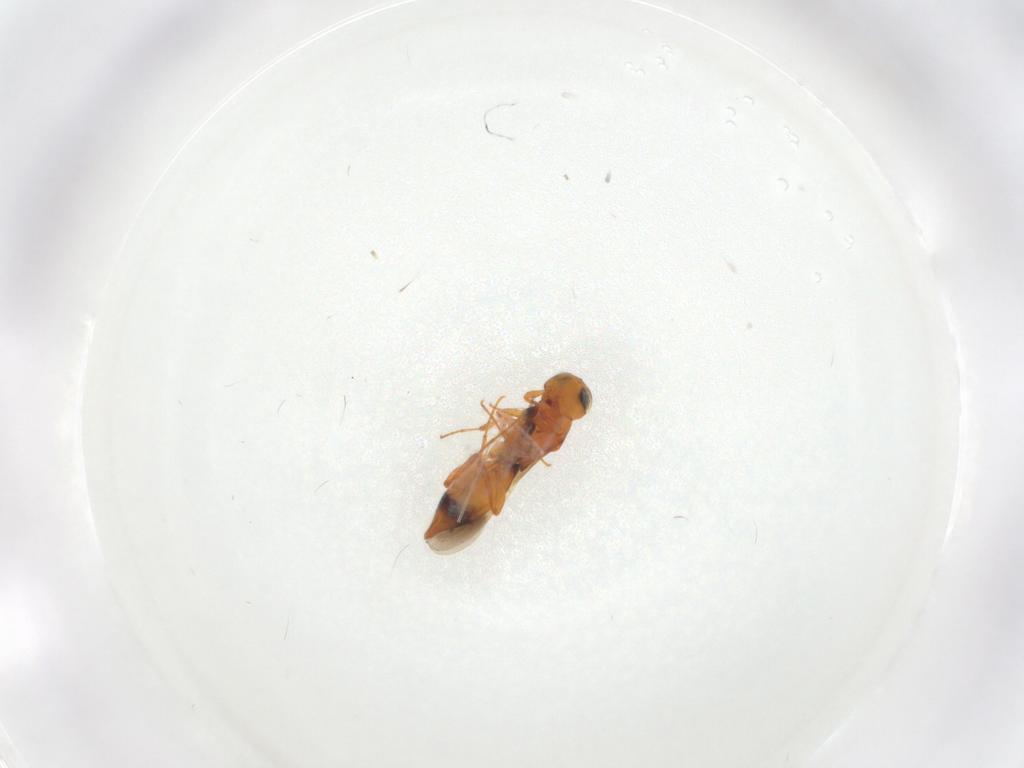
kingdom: Animalia
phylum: Arthropoda
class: Insecta
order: Hymenoptera
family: Platygastridae
